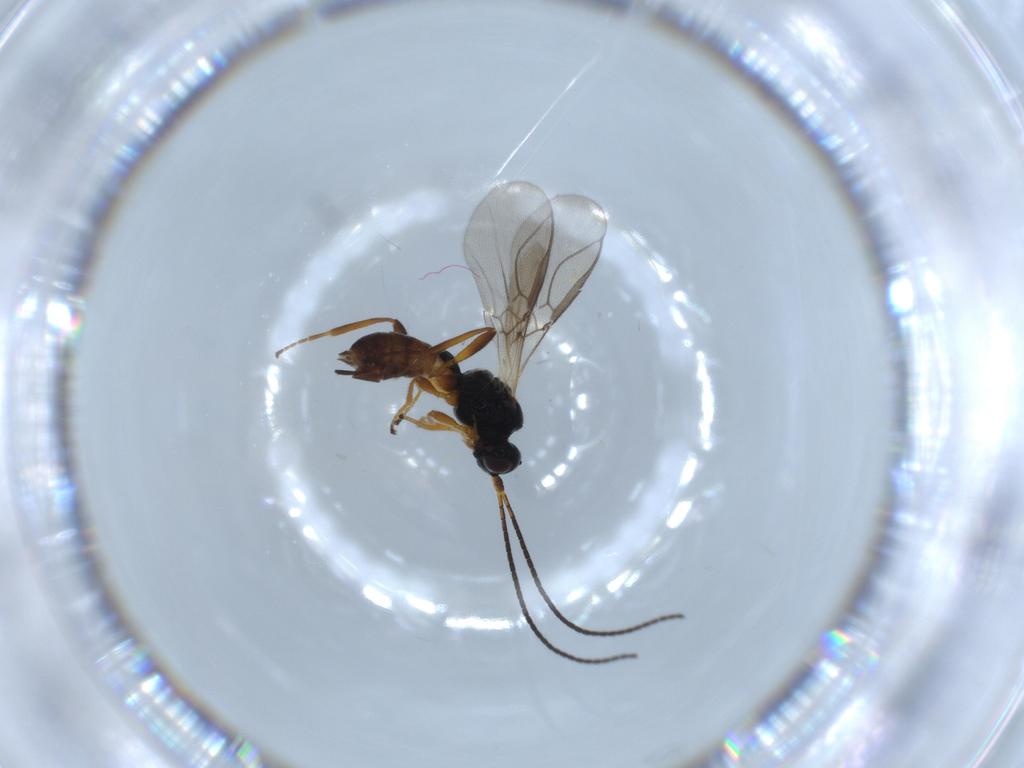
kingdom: Animalia
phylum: Arthropoda
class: Insecta
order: Hymenoptera
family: Braconidae
